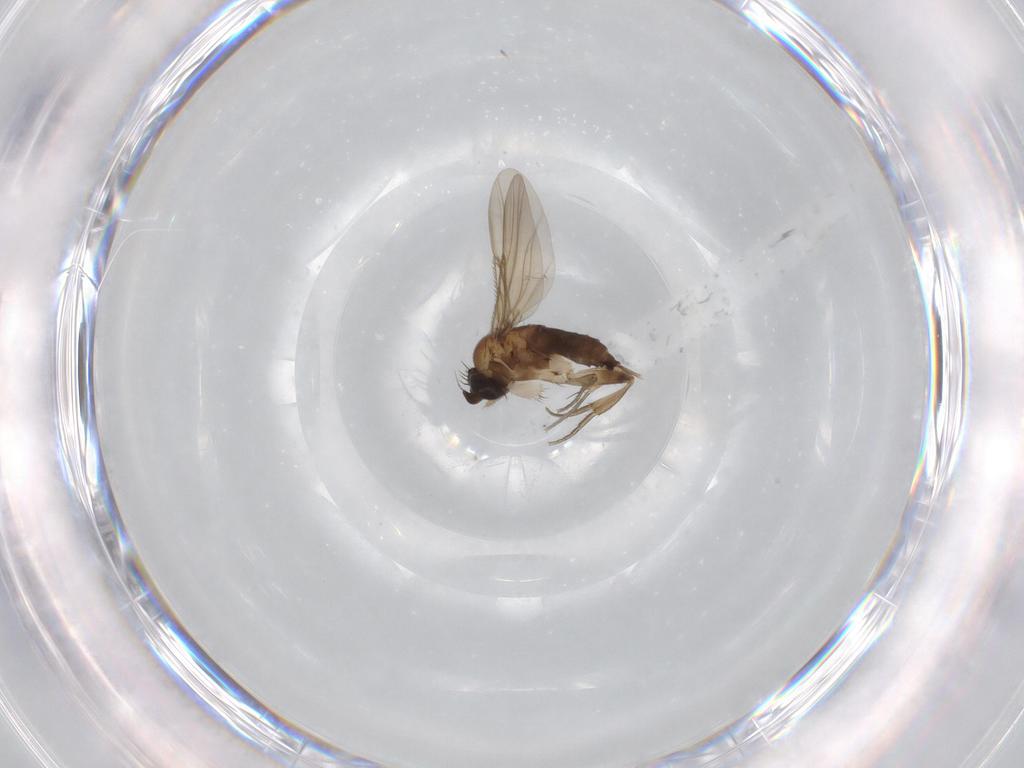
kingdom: Animalia
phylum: Arthropoda
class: Insecta
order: Diptera
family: Phoridae
